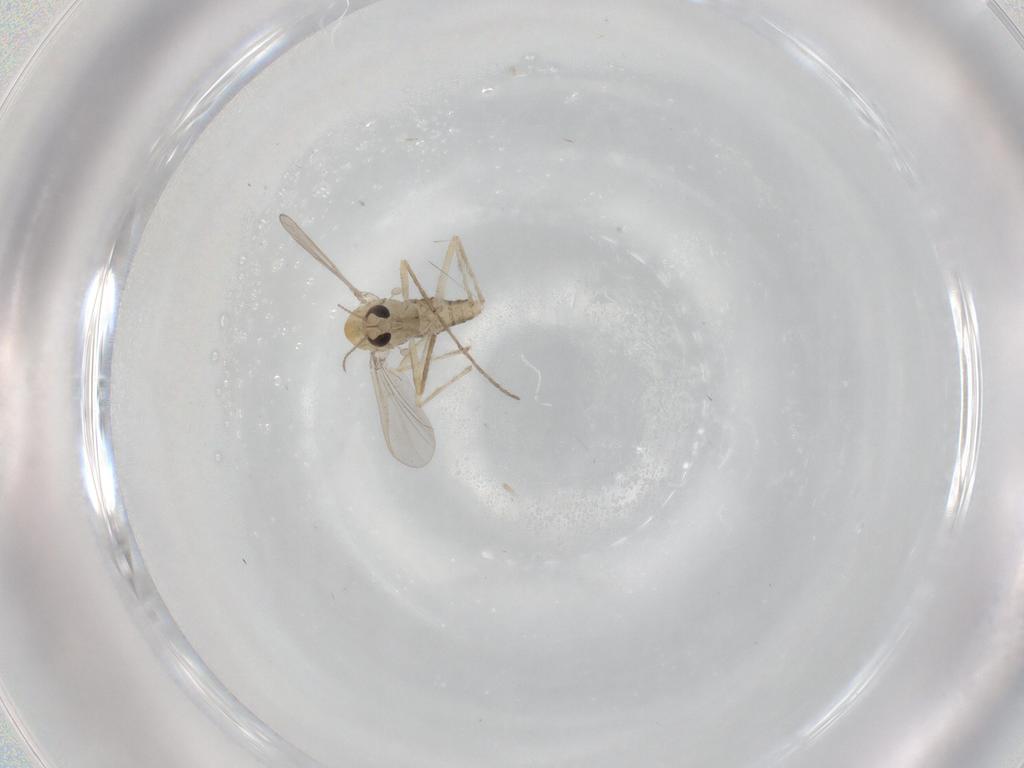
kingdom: Animalia
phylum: Arthropoda
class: Insecta
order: Diptera
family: Chironomidae
